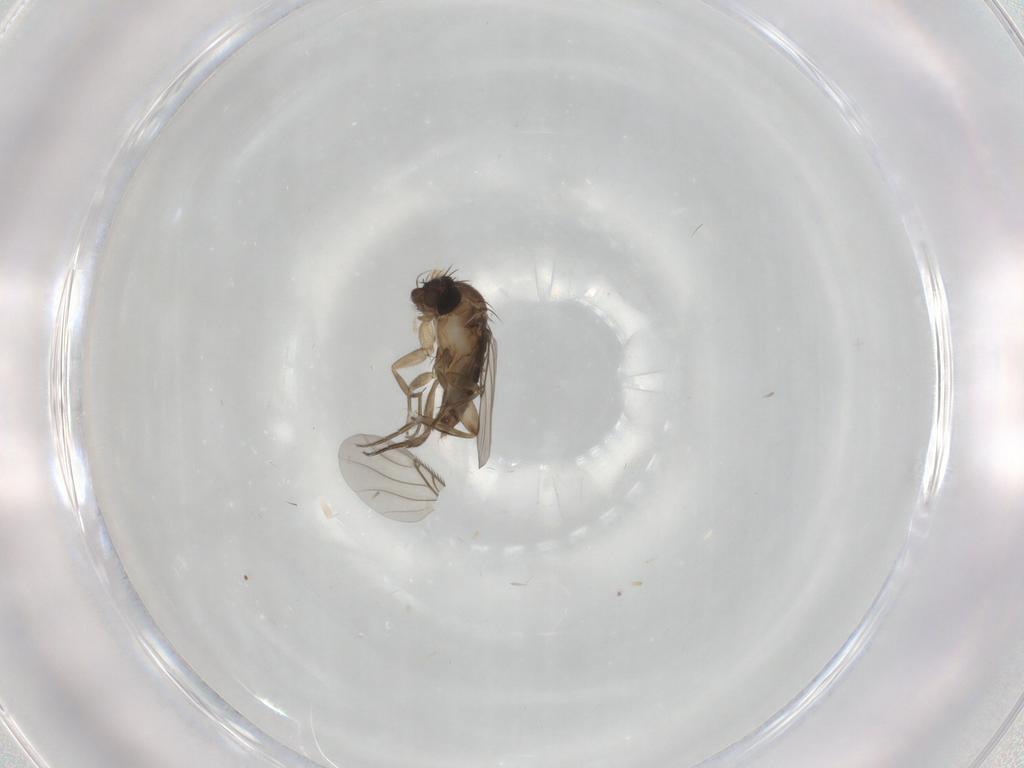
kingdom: Animalia
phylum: Arthropoda
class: Insecta
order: Diptera
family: Phoridae
